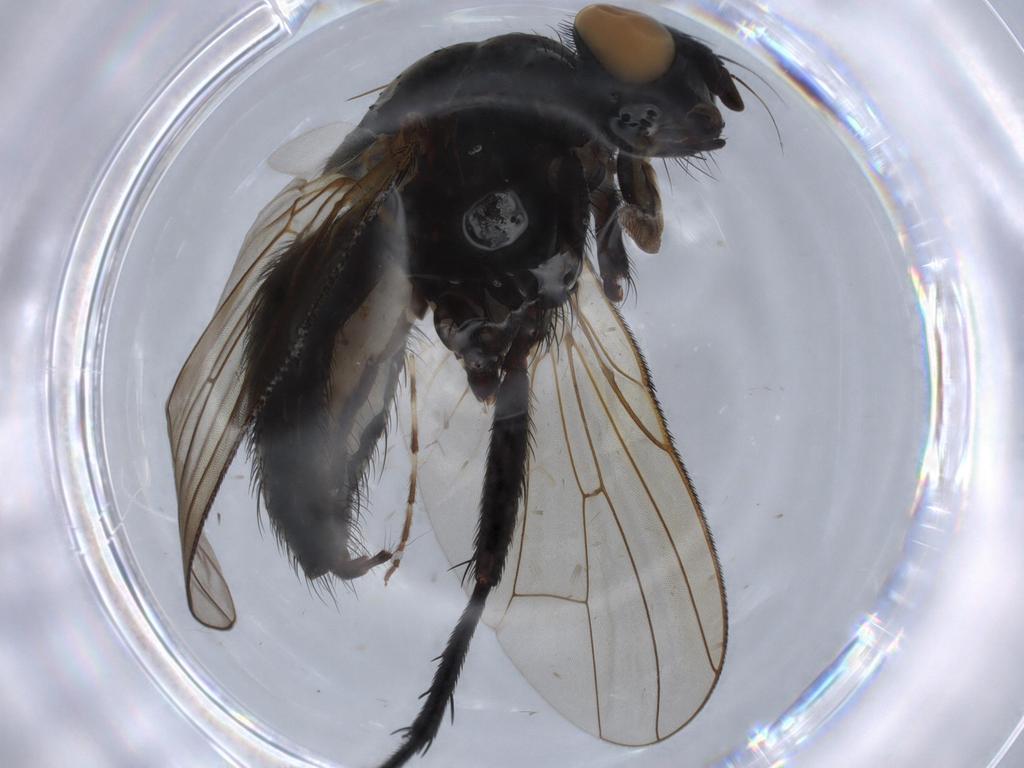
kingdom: Animalia
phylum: Arthropoda
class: Insecta
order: Diptera
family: Anthomyiidae
